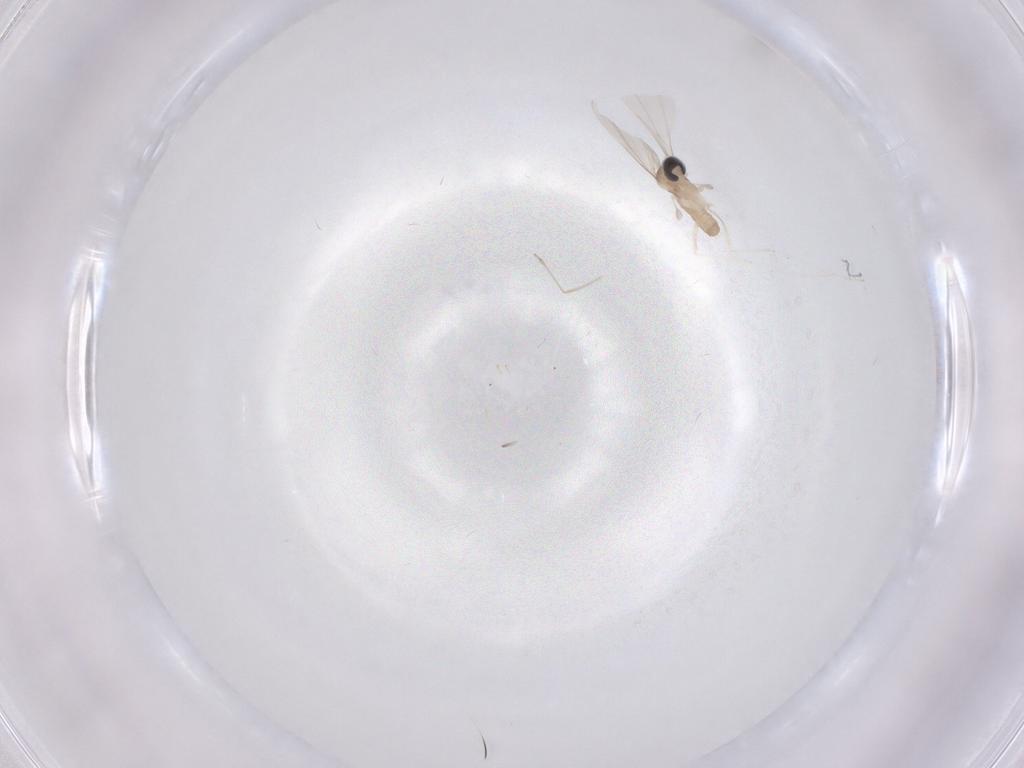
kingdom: Animalia
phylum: Arthropoda
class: Insecta
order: Diptera
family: Cecidomyiidae
